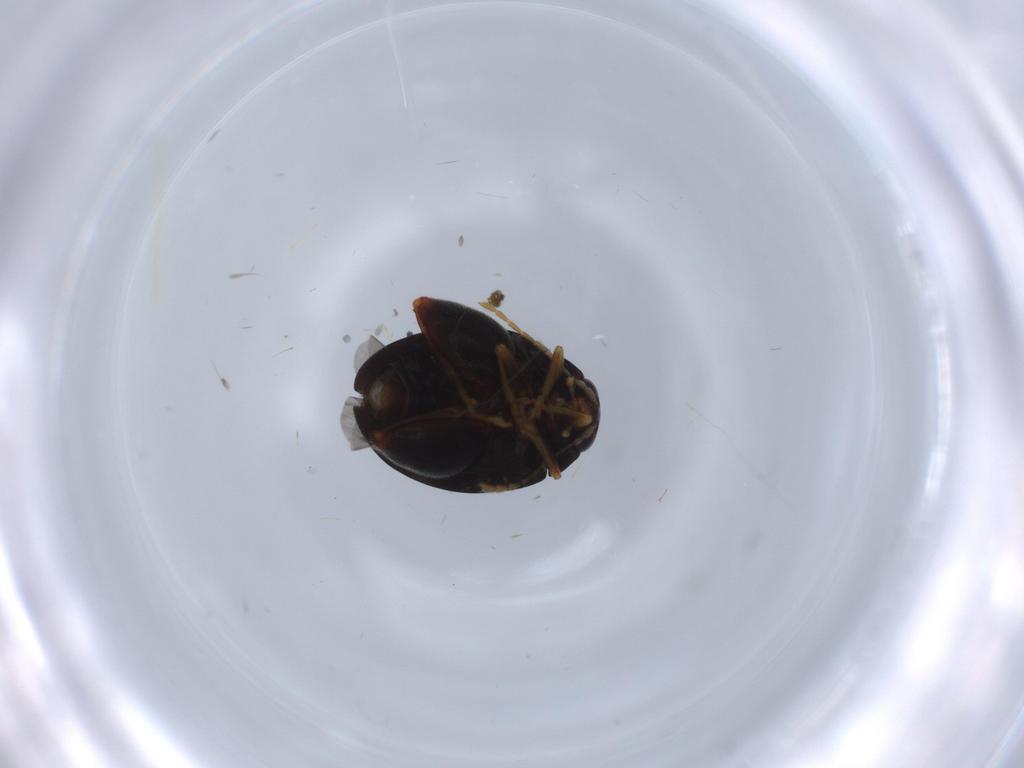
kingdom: Animalia
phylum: Arthropoda
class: Insecta
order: Coleoptera
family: Chrysomelidae
